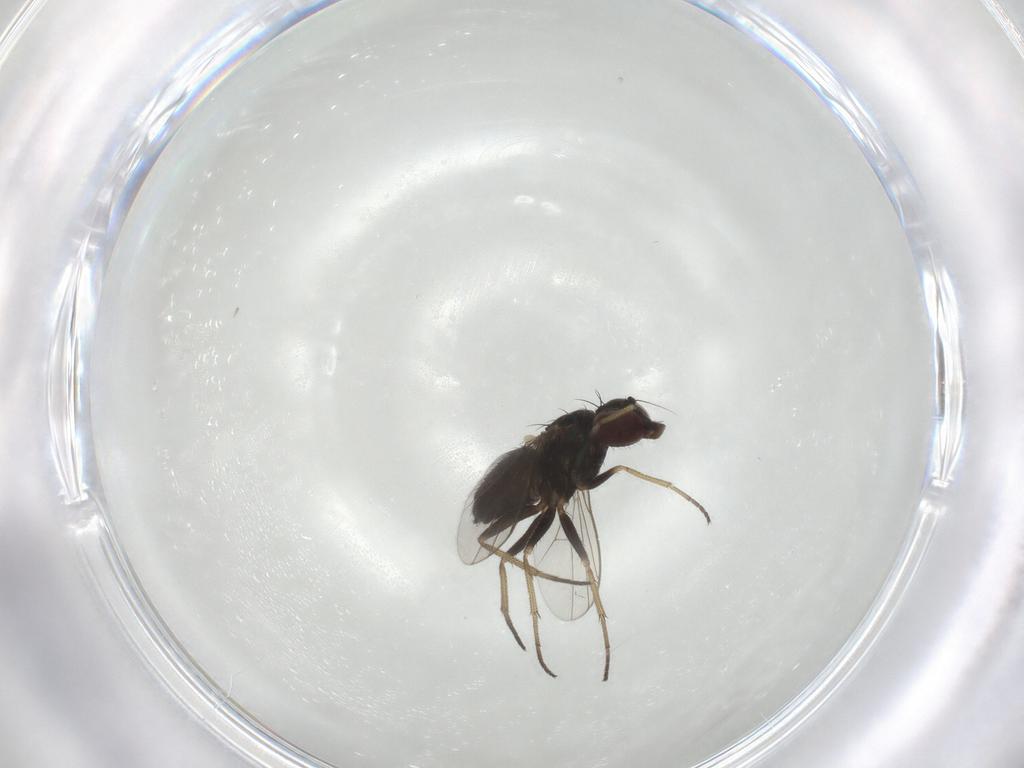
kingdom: Animalia
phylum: Arthropoda
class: Insecta
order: Diptera
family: Dolichopodidae
